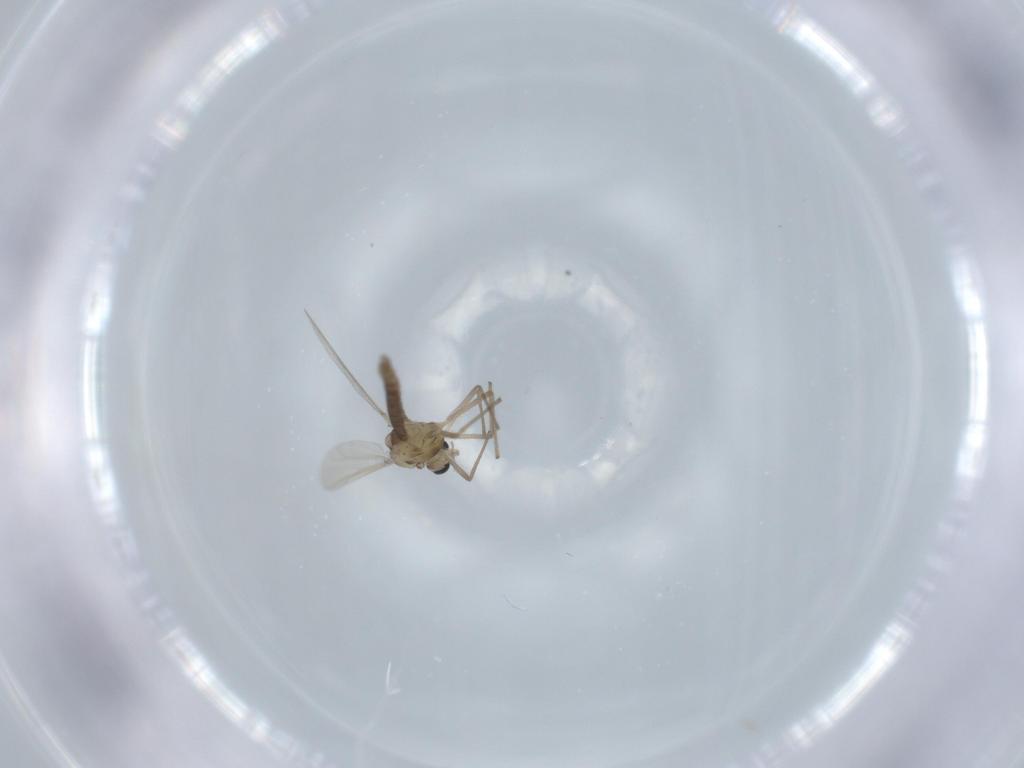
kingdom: Animalia
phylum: Arthropoda
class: Insecta
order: Diptera
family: Chironomidae
